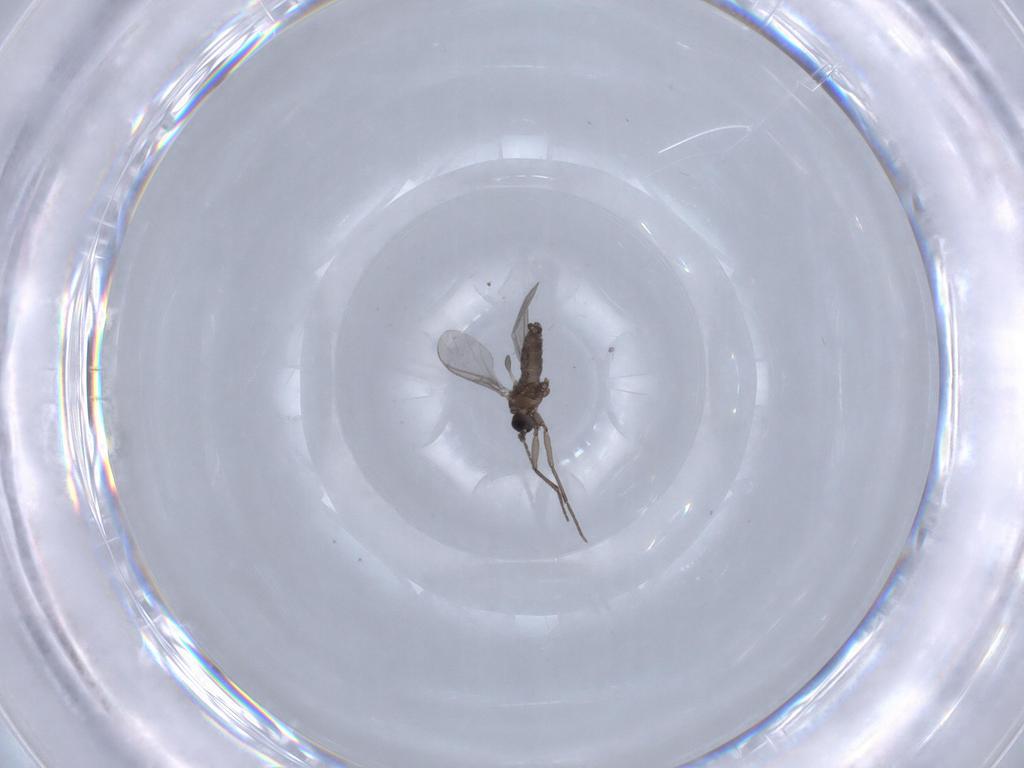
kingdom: Animalia
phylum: Arthropoda
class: Insecta
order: Diptera
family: Sciaridae
